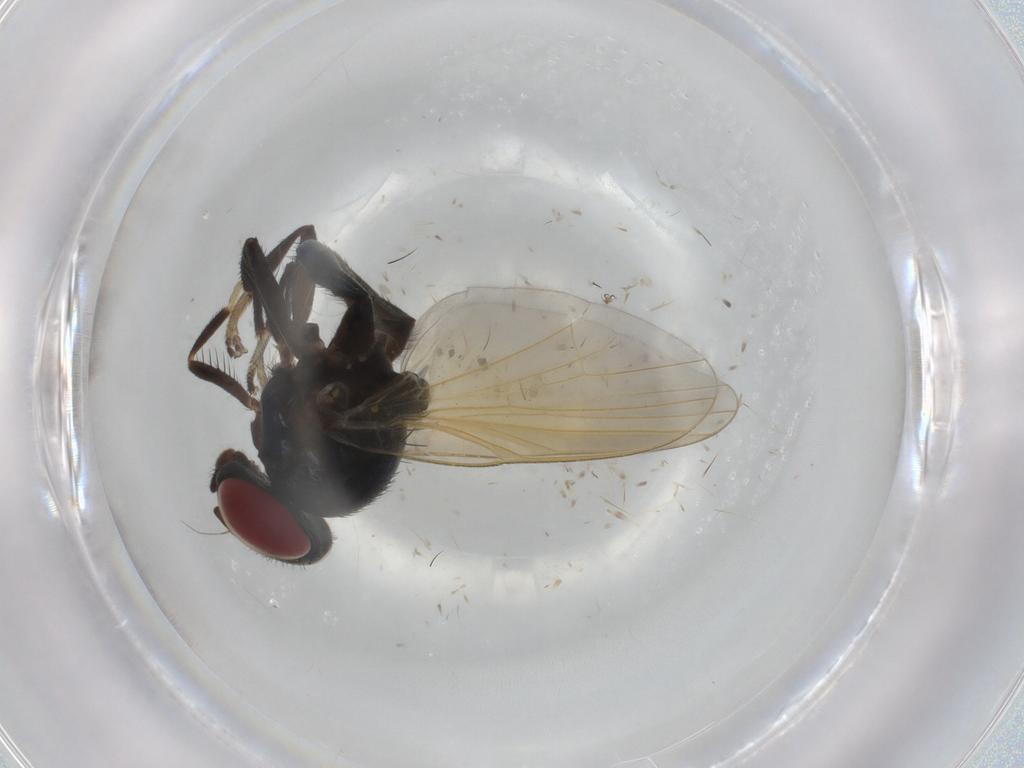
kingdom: Animalia
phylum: Arthropoda
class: Insecta
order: Diptera
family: Lonchaeidae
